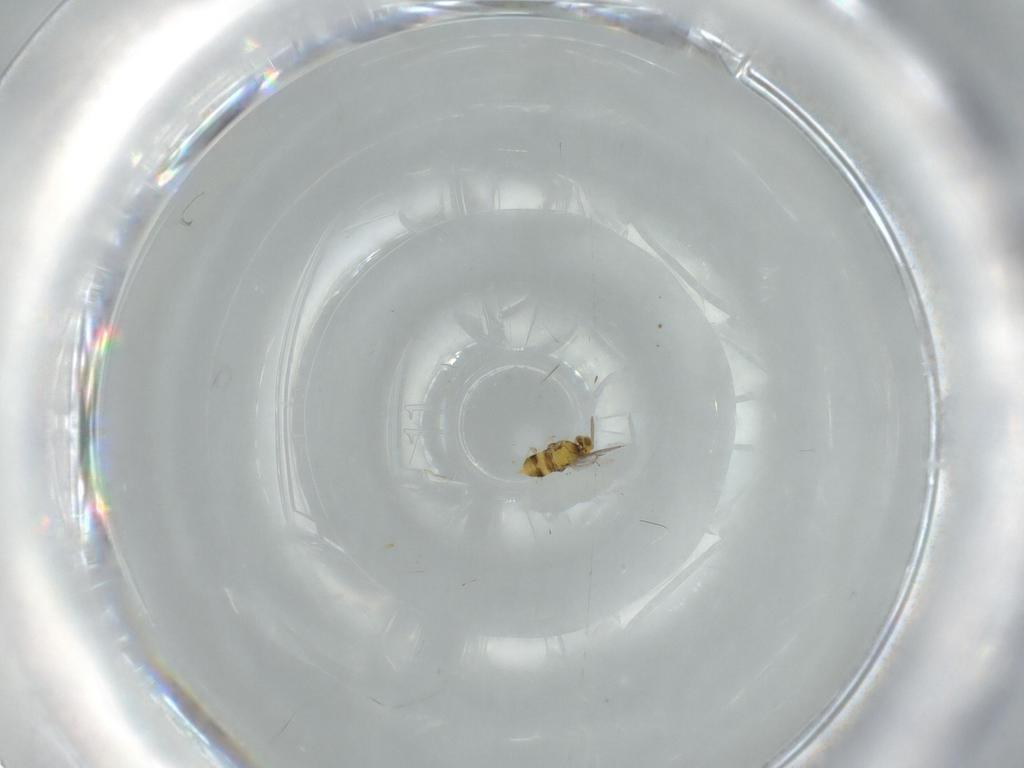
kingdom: Animalia
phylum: Arthropoda
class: Insecta
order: Hymenoptera
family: Aphelinidae
